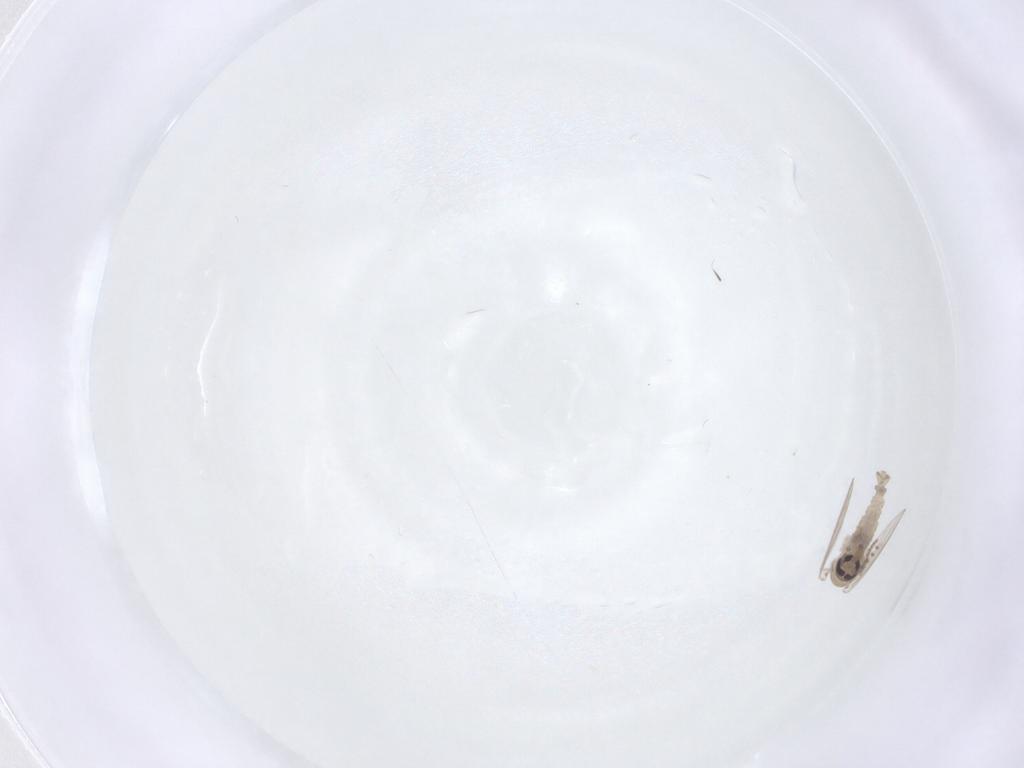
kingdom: Animalia
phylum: Arthropoda
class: Insecta
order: Diptera
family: Psychodidae
